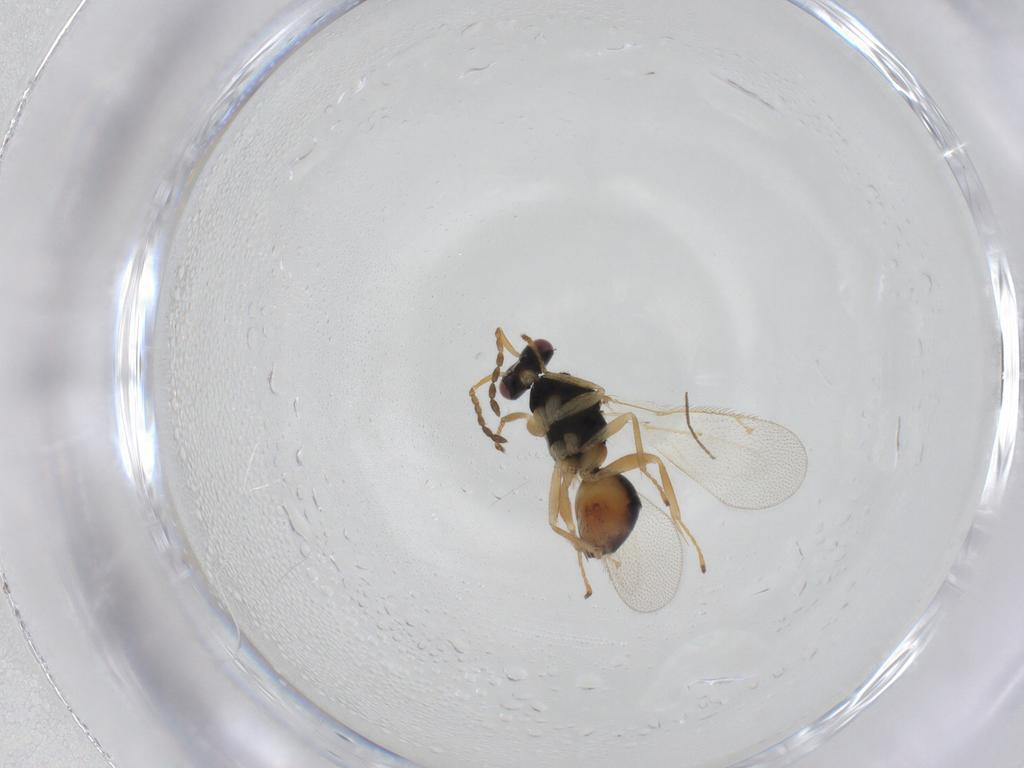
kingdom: Animalia
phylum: Arthropoda
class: Insecta
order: Hymenoptera
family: Eulophidae
